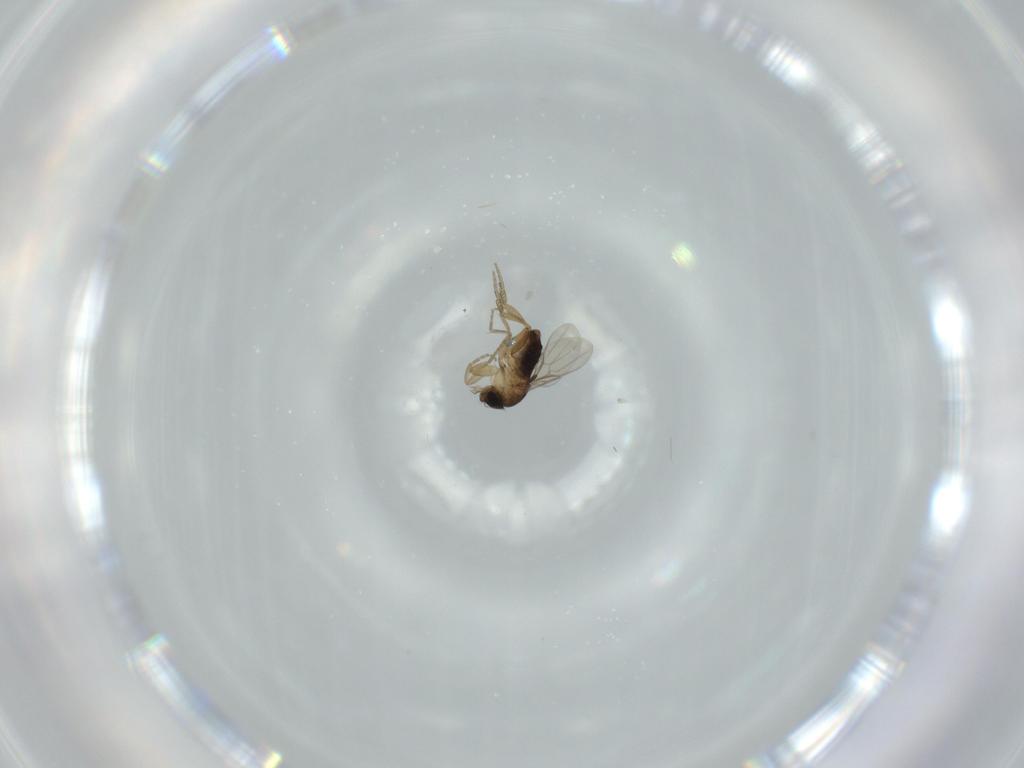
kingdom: Animalia
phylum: Arthropoda
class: Insecta
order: Diptera
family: Phoridae
